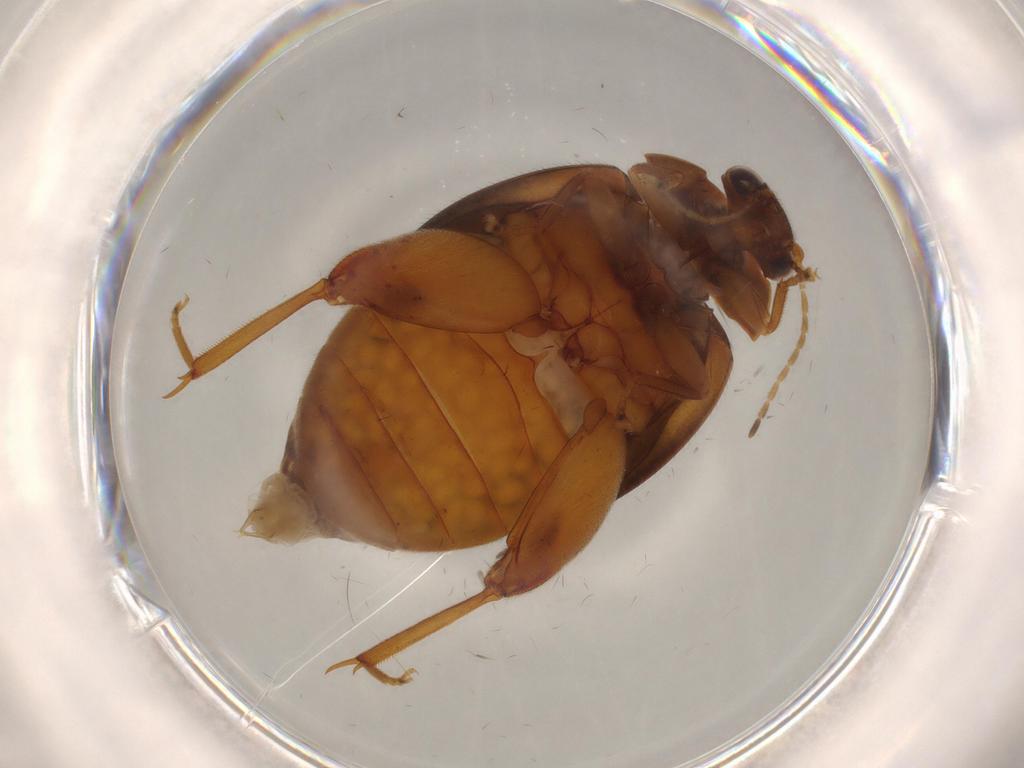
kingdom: Animalia
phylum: Arthropoda
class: Insecta
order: Coleoptera
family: Scirtidae
